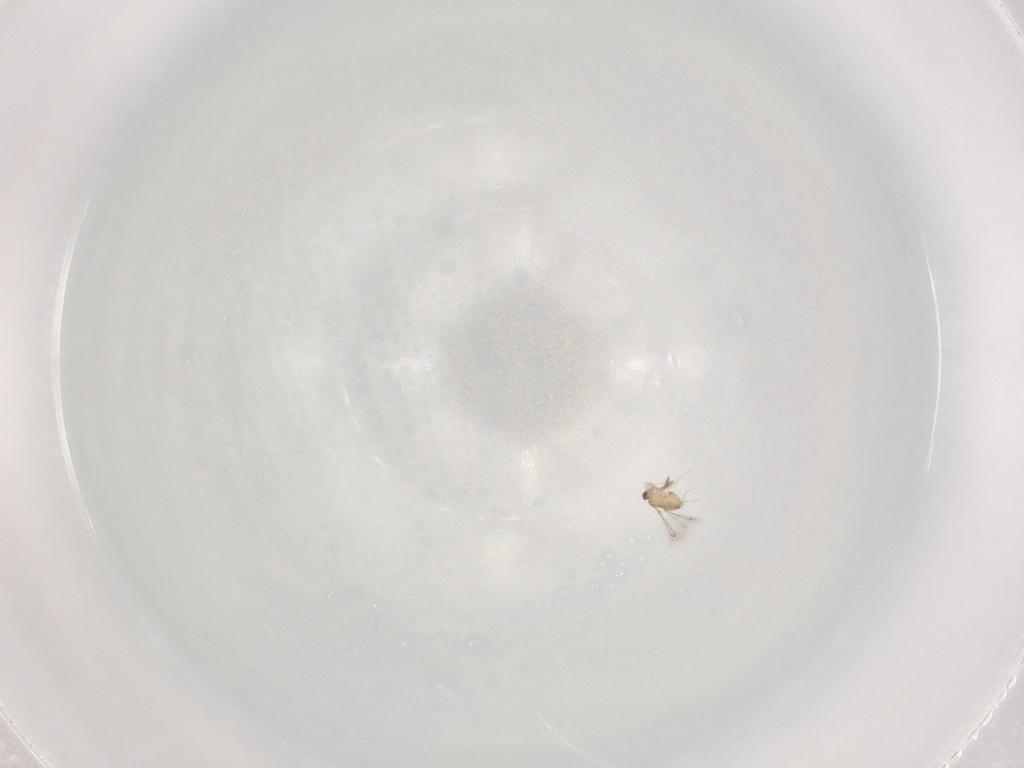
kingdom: Animalia
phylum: Arthropoda
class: Insecta
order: Hymenoptera
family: Mymaridae
